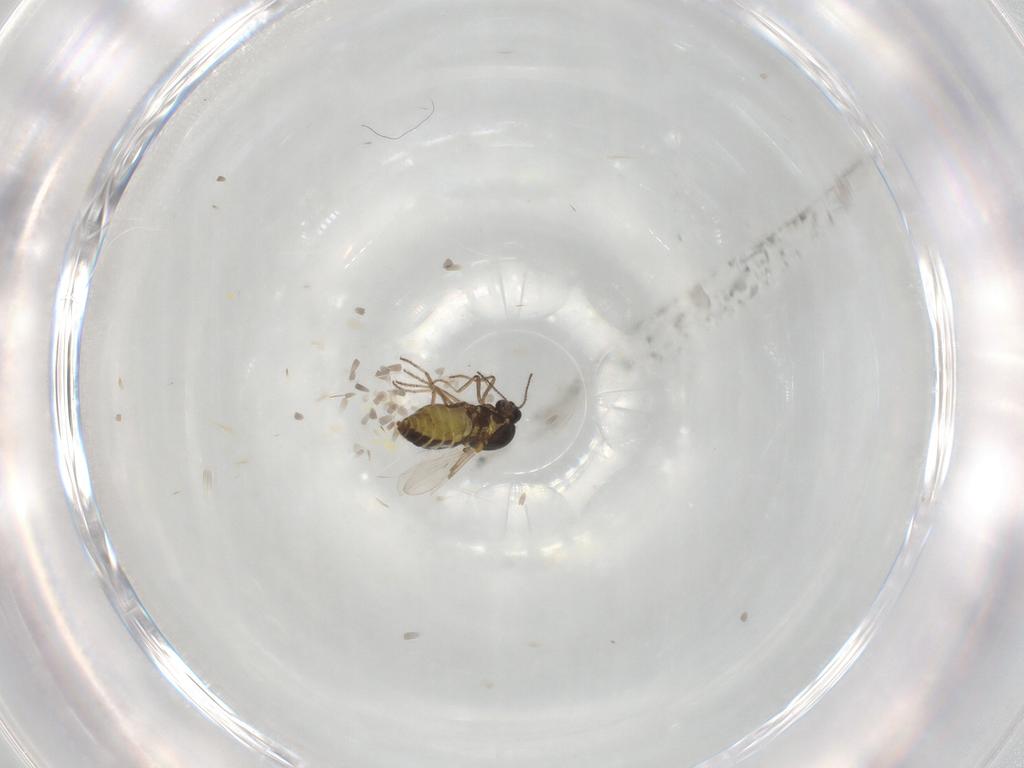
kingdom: Animalia
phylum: Arthropoda
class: Insecta
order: Diptera
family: Ceratopogonidae
